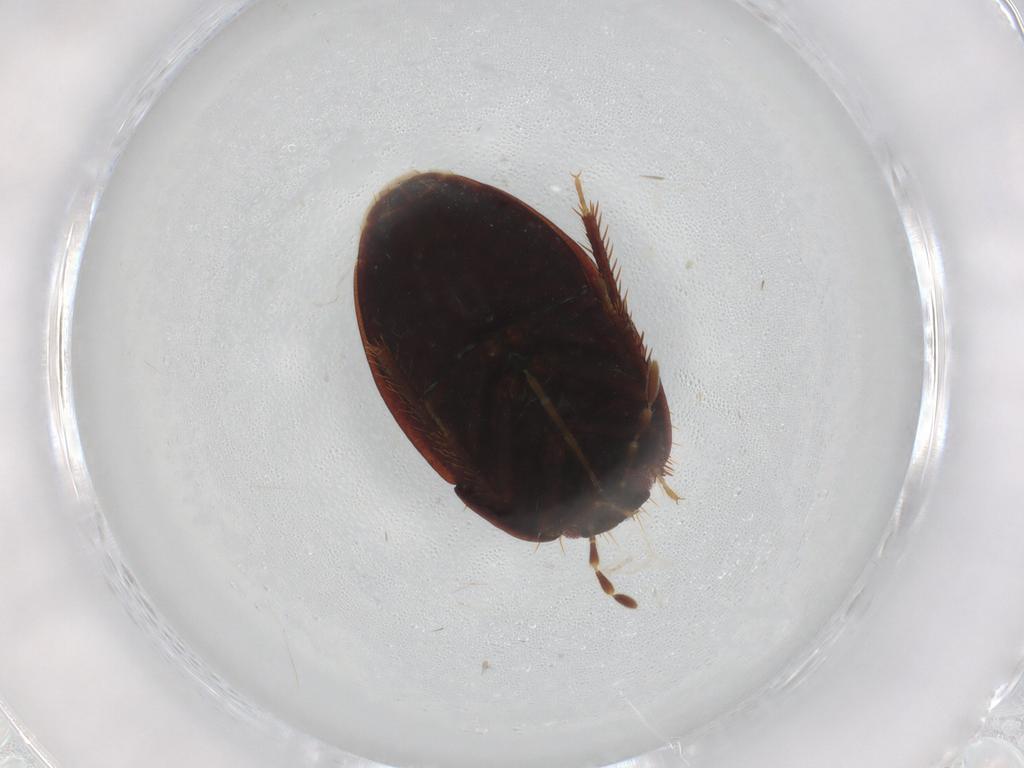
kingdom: Animalia
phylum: Arthropoda
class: Insecta
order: Hemiptera
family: Cydnidae
